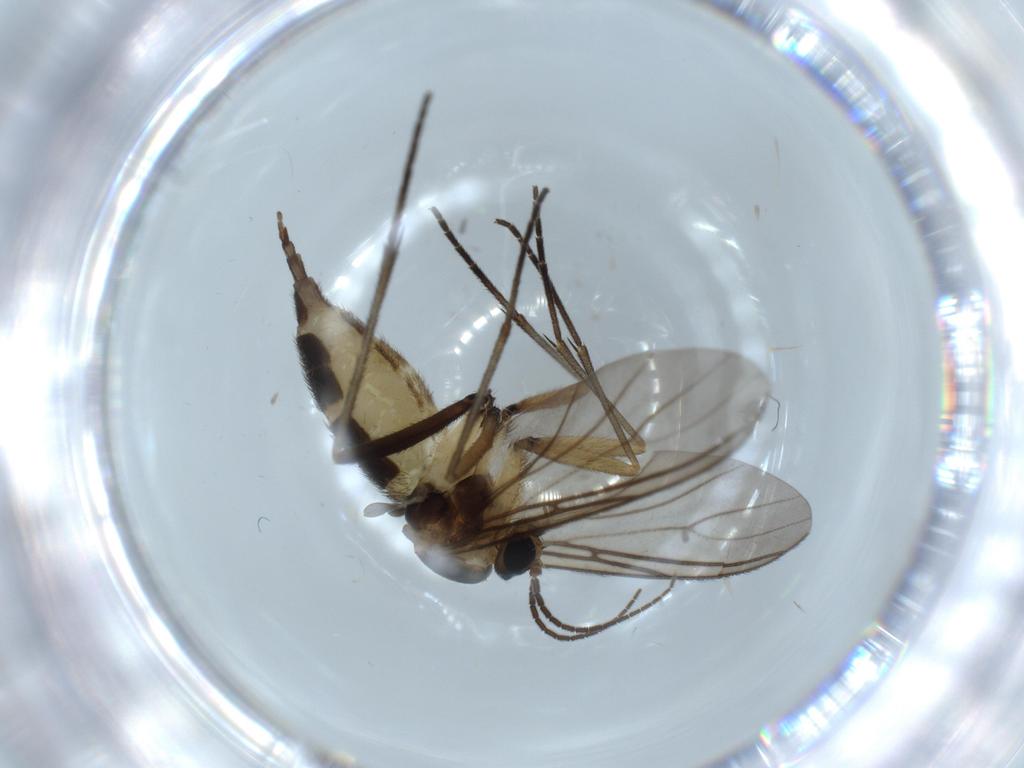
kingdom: Animalia
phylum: Arthropoda
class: Insecta
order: Diptera
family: Sciaridae
